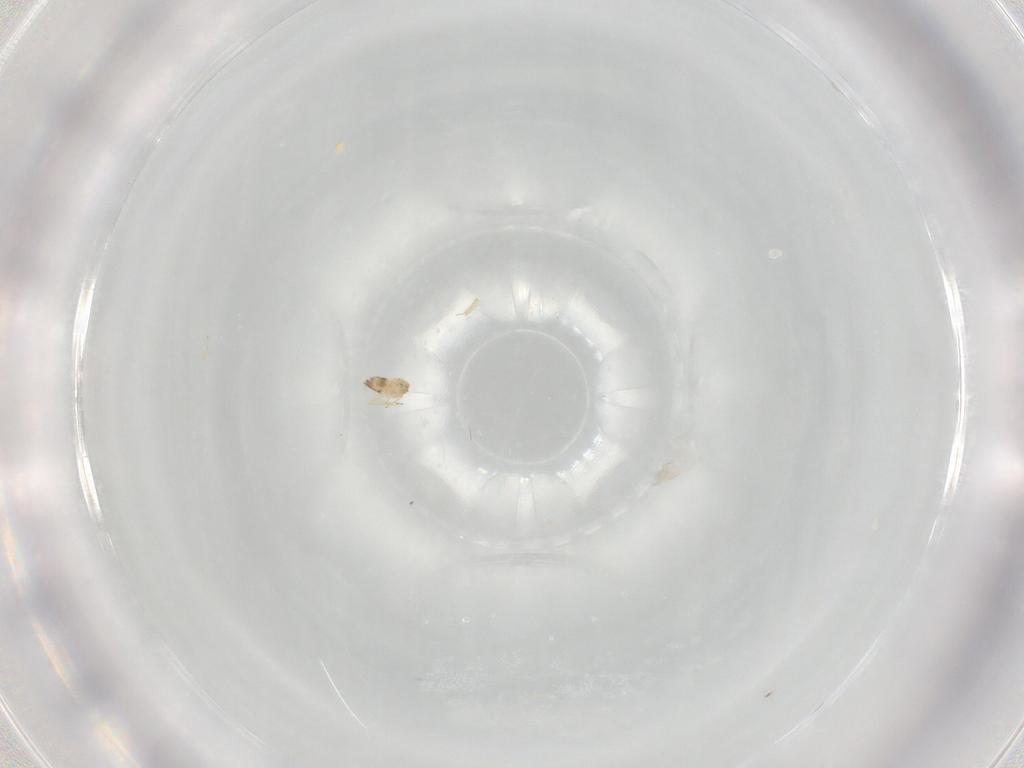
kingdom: Animalia
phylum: Arthropoda
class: Insecta
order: Hymenoptera
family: Trichogrammatidae
